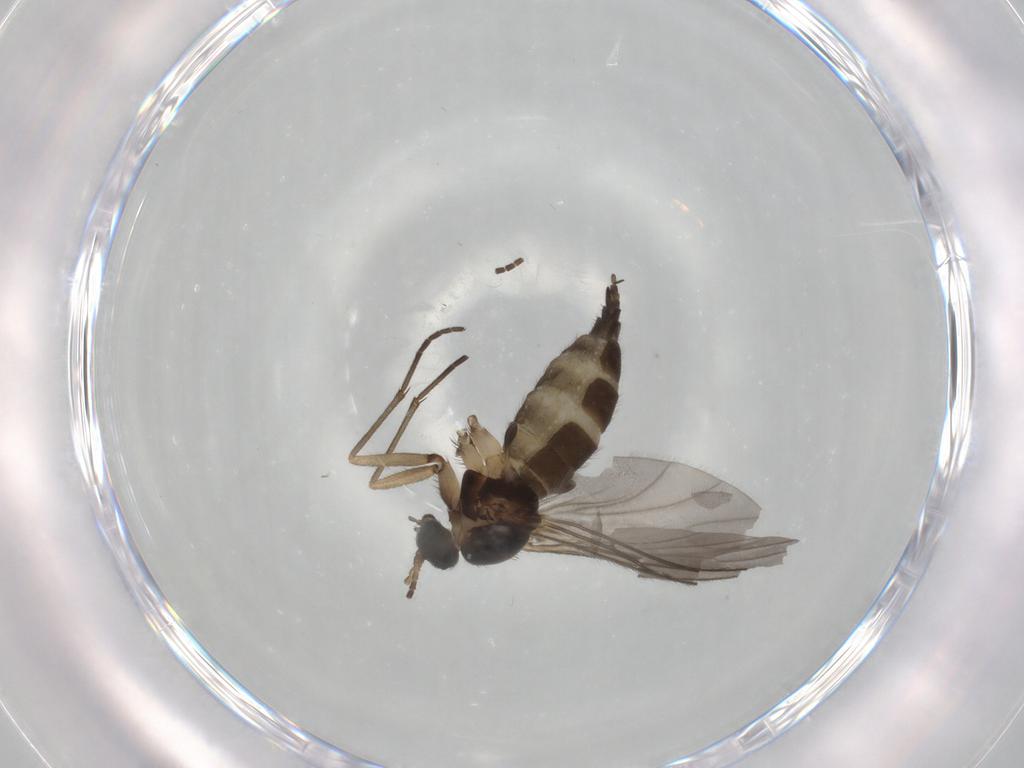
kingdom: Animalia
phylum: Arthropoda
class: Insecta
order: Diptera
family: Sciaridae
